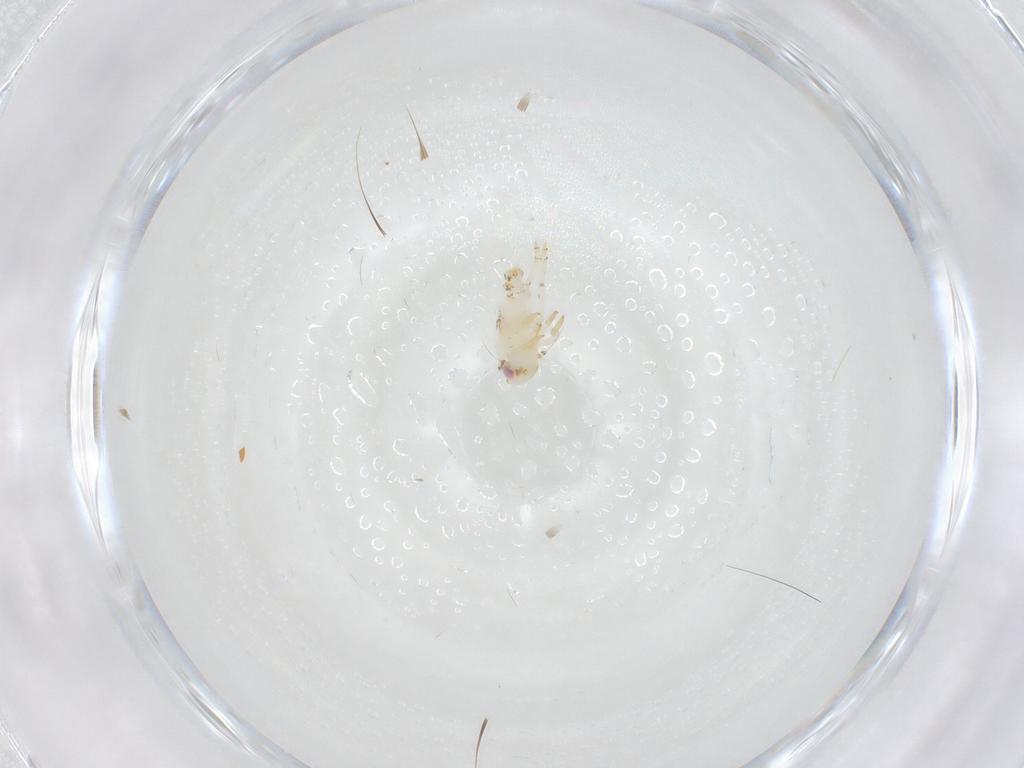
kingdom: Animalia
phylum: Arthropoda
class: Insecta
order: Hemiptera
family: Nogodinidae
